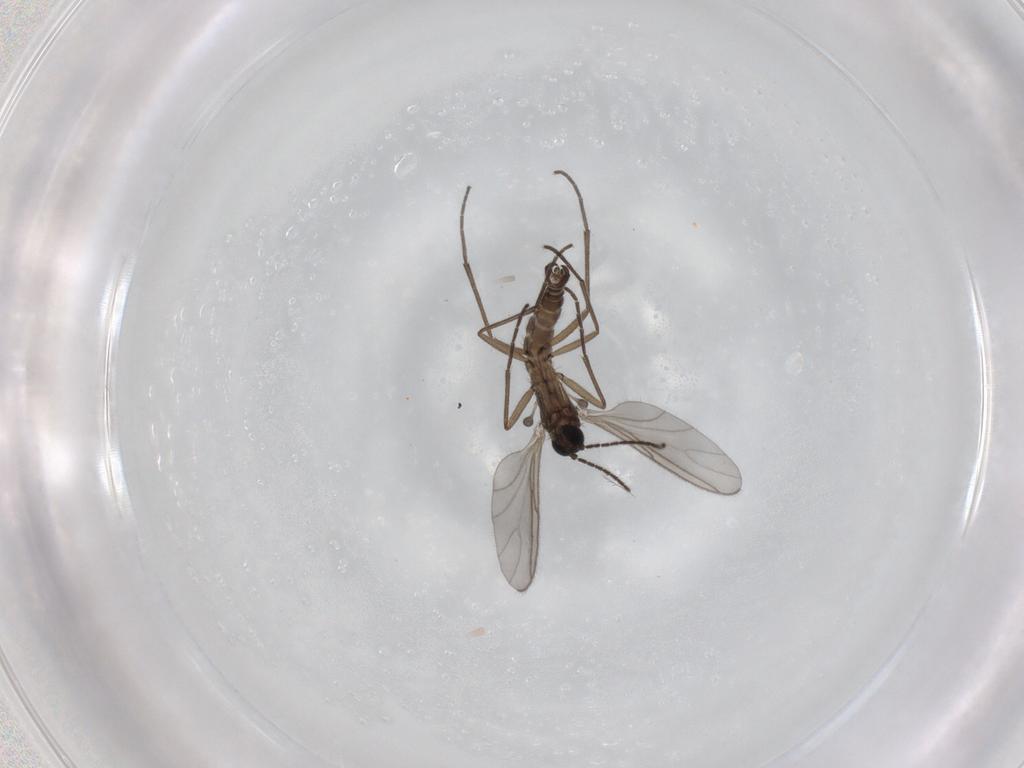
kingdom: Animalia
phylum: Arthropoda
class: Insecta
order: Diptera
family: Sciaridae
